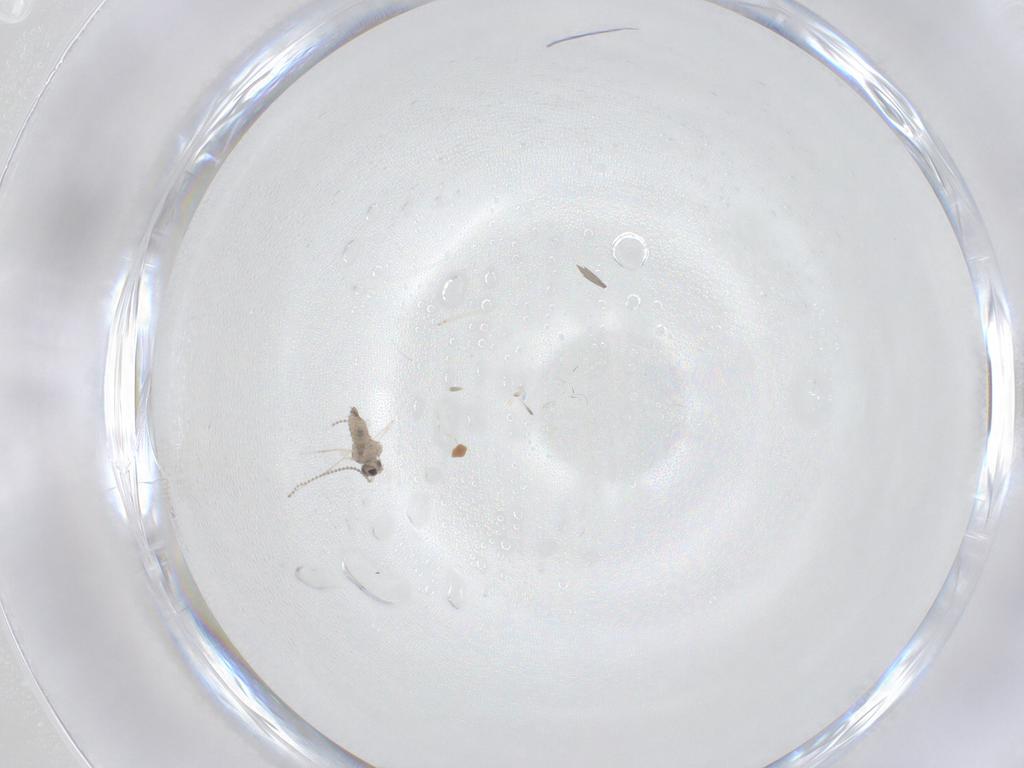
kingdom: Animalia
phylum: Arthropoda
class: Insecta
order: Diptera
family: Cecidomyiidae
